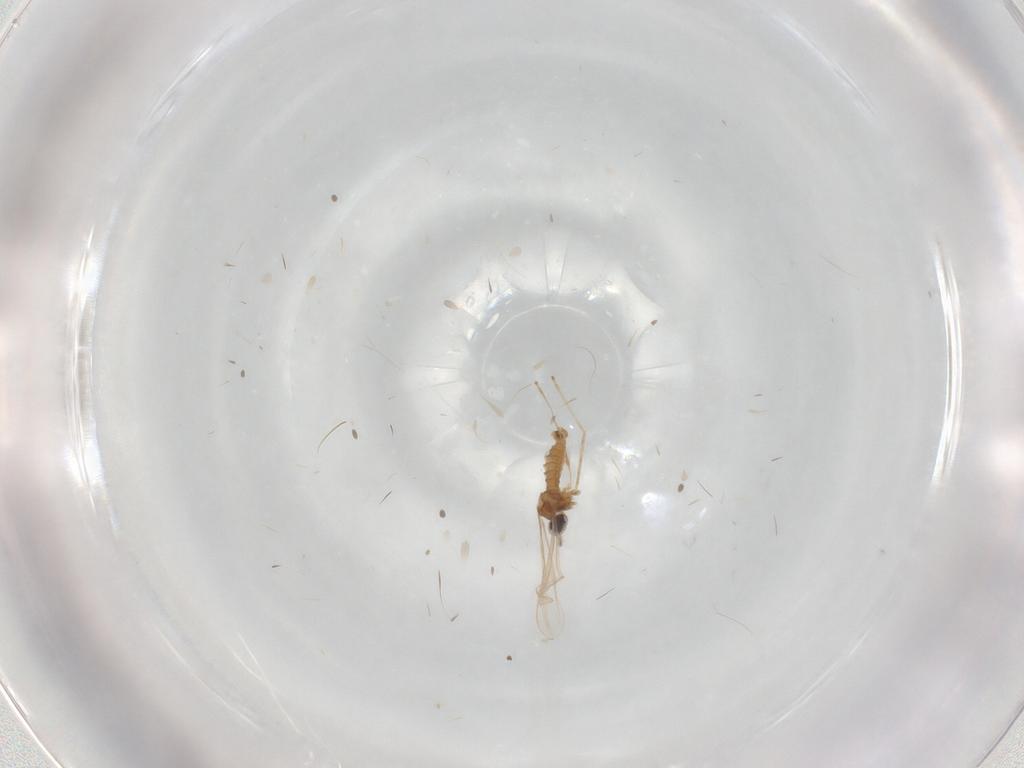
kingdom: Animalia
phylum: Arthropoda
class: Insecta
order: Diptera
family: Cecidomyiidae
